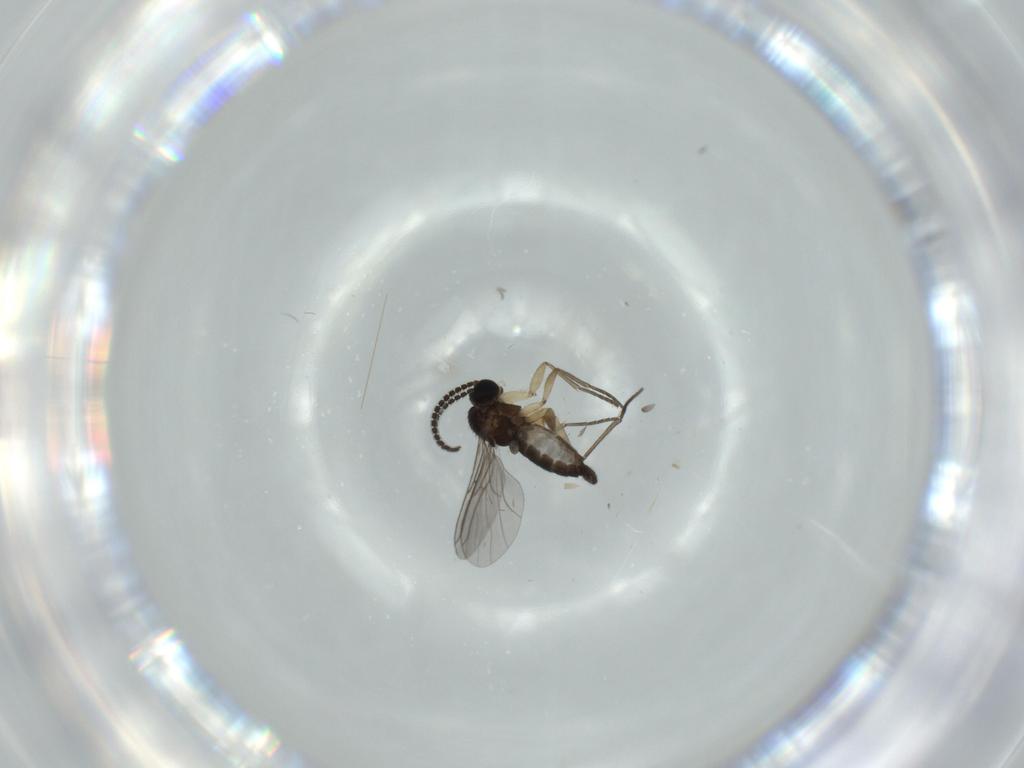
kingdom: Animalia
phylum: Arthropoda
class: Insecta
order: Diptera
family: Sciaridae
